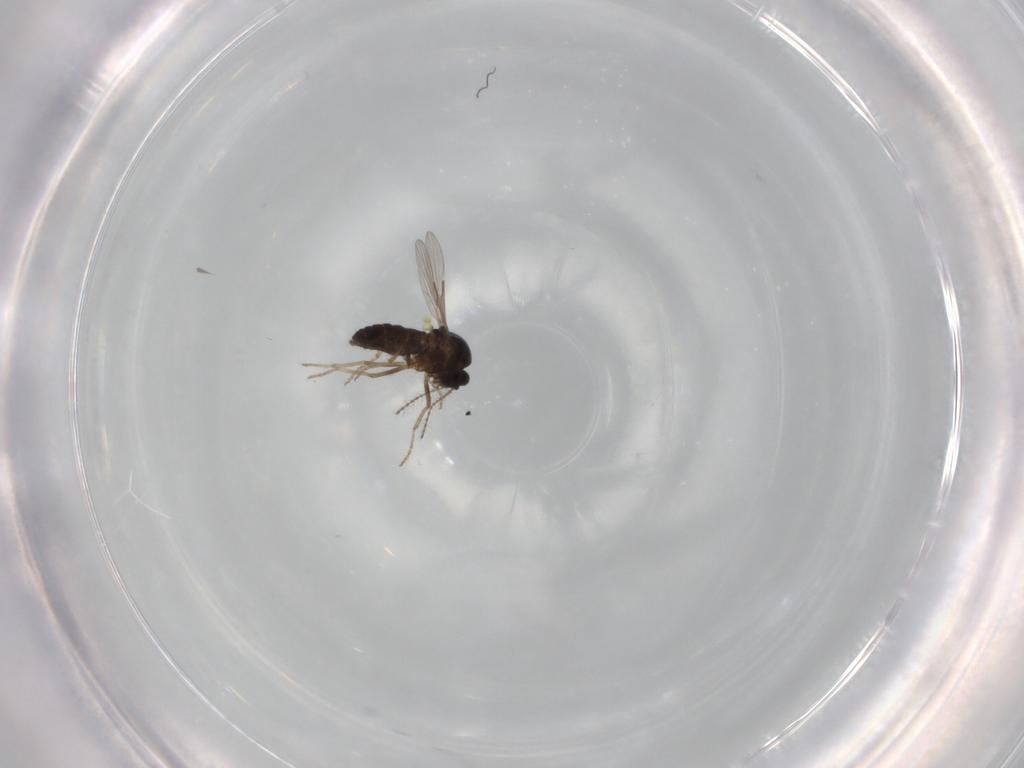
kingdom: Animalia
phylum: Arthropoda
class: Insecta
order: Diptera
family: Ceratopogonidae
